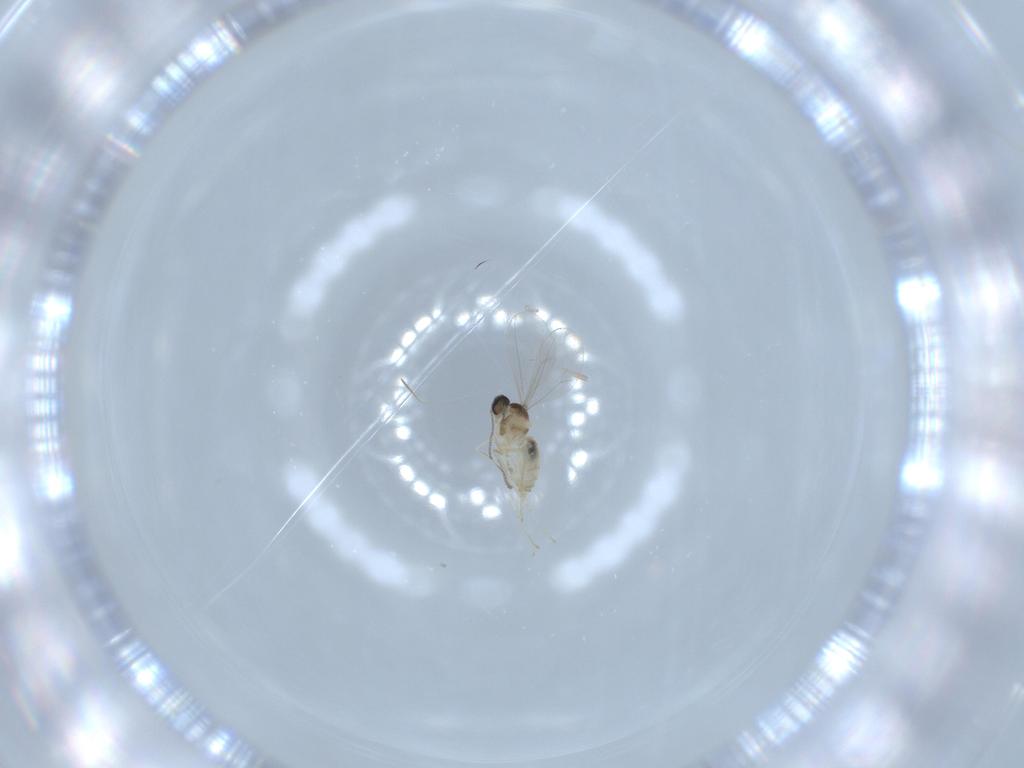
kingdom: Animalia
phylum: Arthropoda
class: Insecta
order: Diptera
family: Cecidomyiidae
